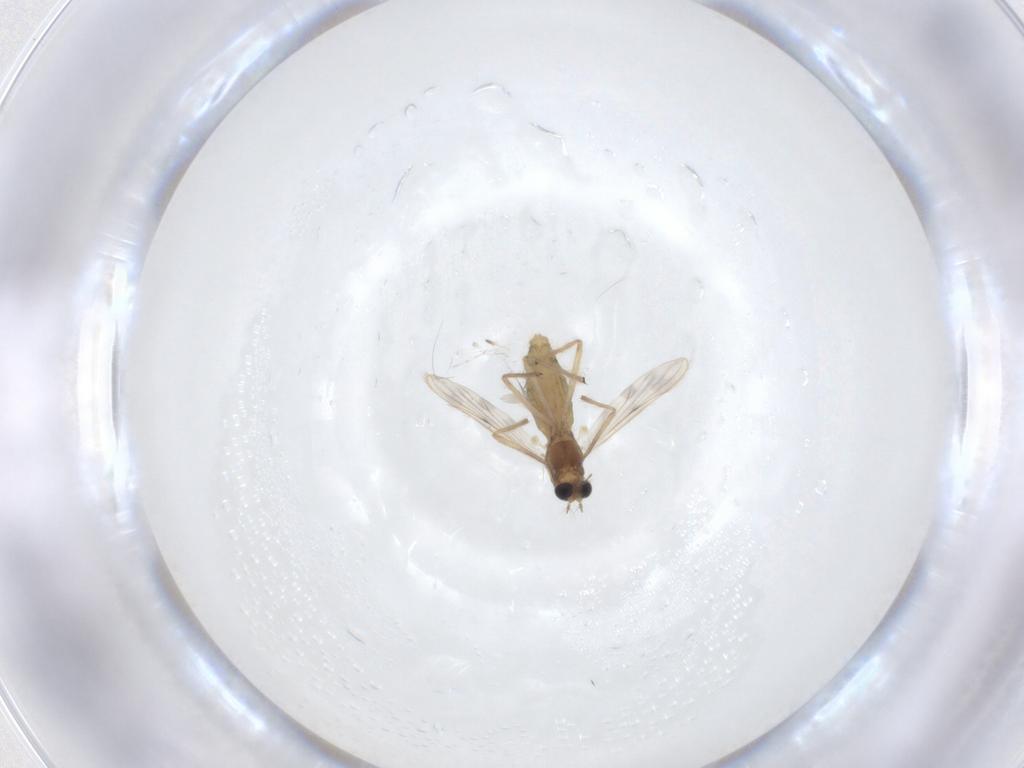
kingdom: Animalia
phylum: Arthropoda
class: Insecta
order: Diptera
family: Chironomidae
